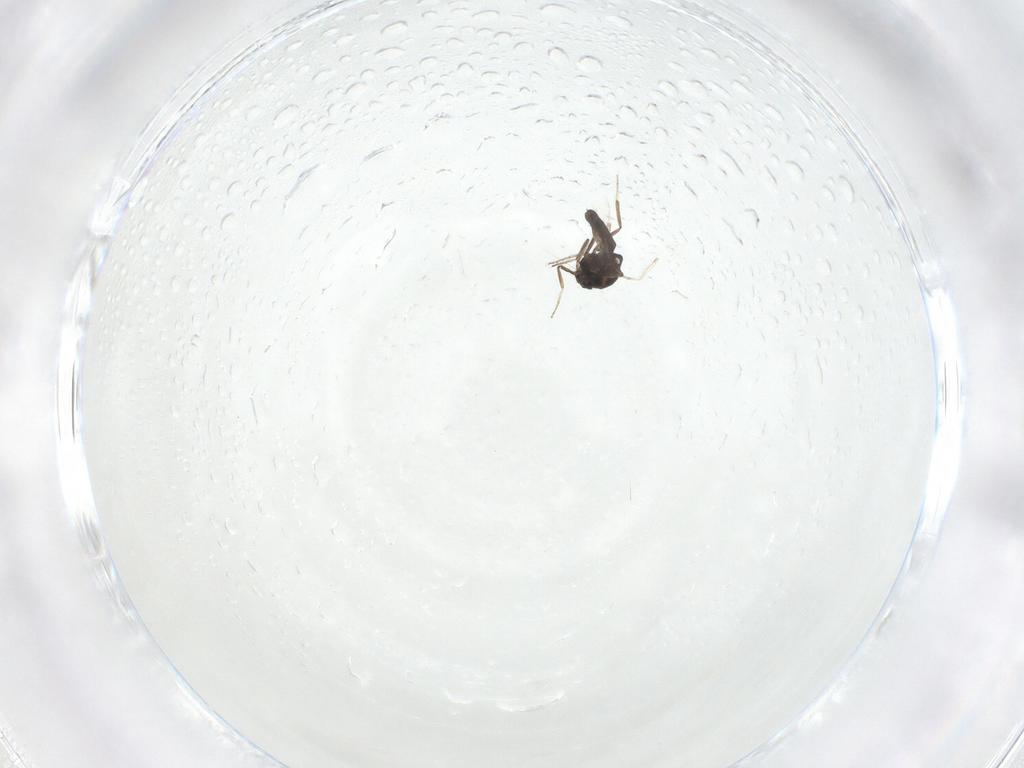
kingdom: Animalia
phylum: Arthropoda
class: Insecta
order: Diptera
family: Ceratopogonidae
